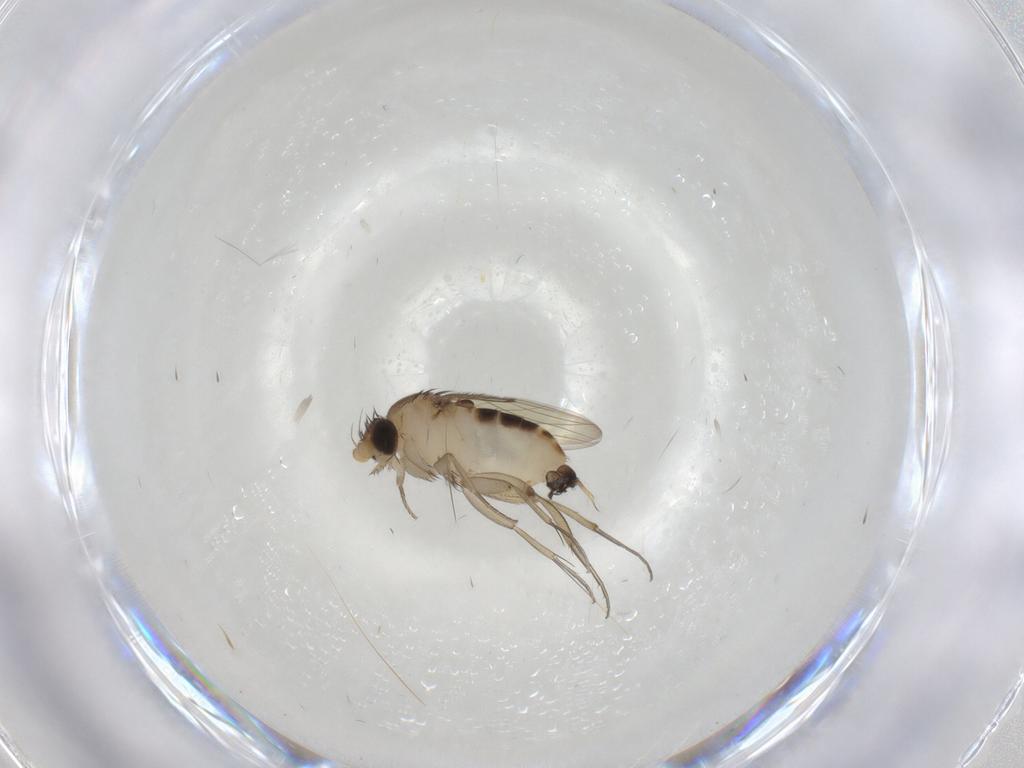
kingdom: Animalia
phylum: Arthropoda
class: Insecta
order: Diptera
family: Phoridae
